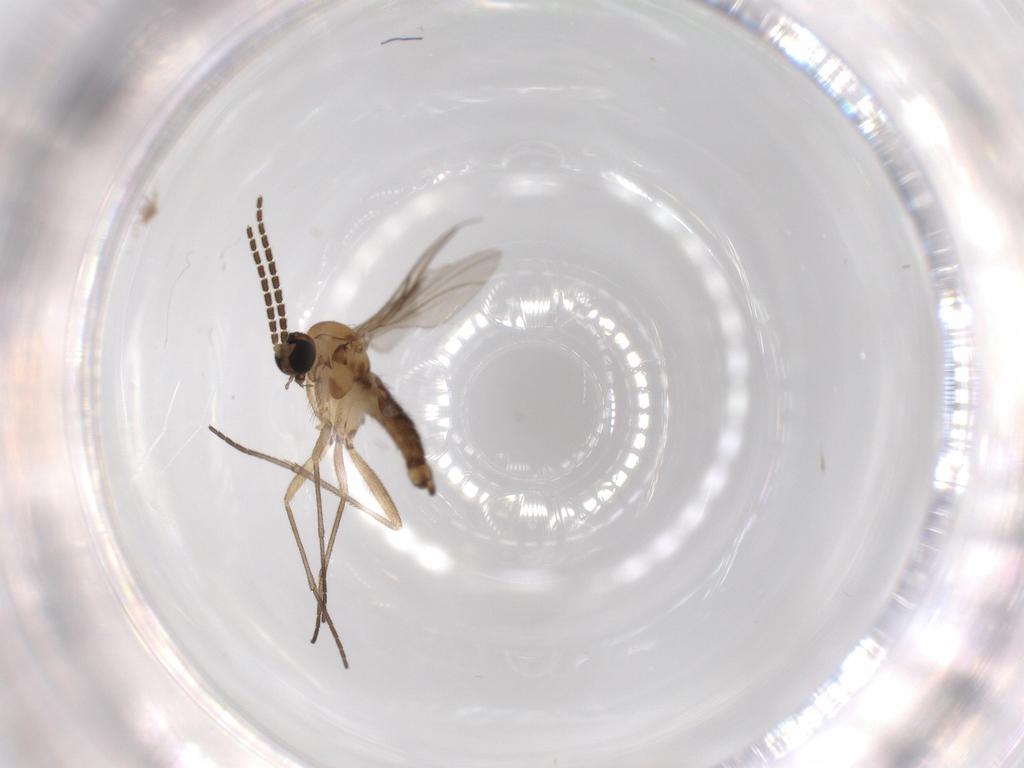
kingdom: Animalia
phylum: Arthropoda
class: Insecta
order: Diptera
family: Sciaridae
